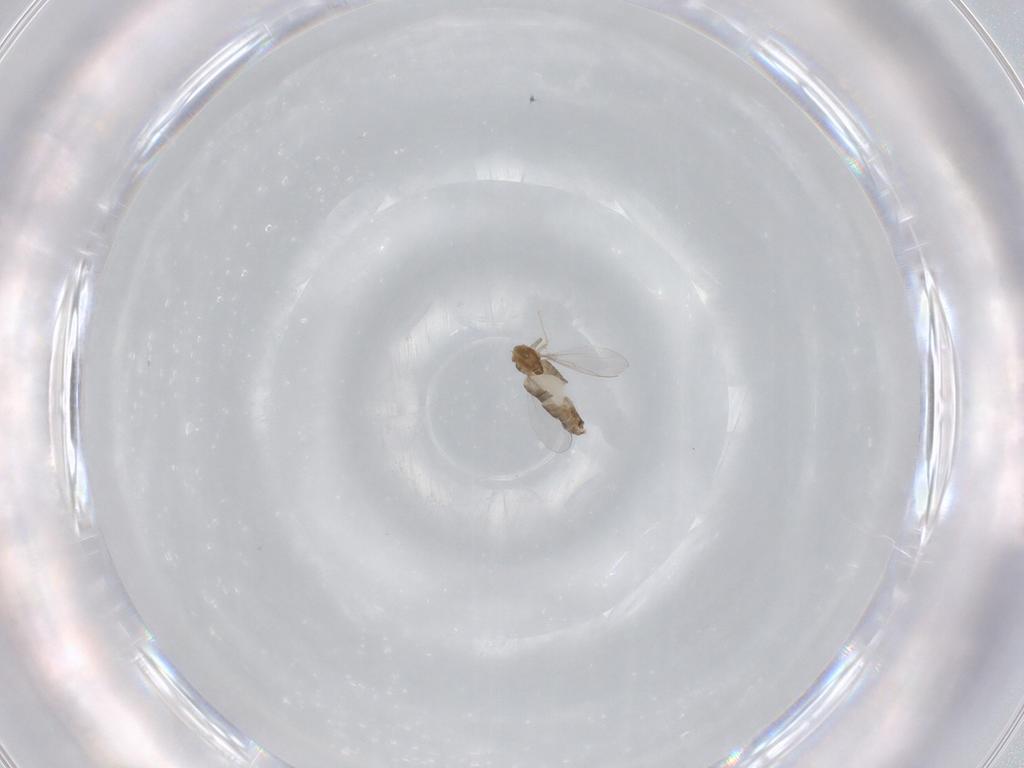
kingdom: Animalia
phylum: Arthropoda
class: Insecta
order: Diptera
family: Chironomidae
